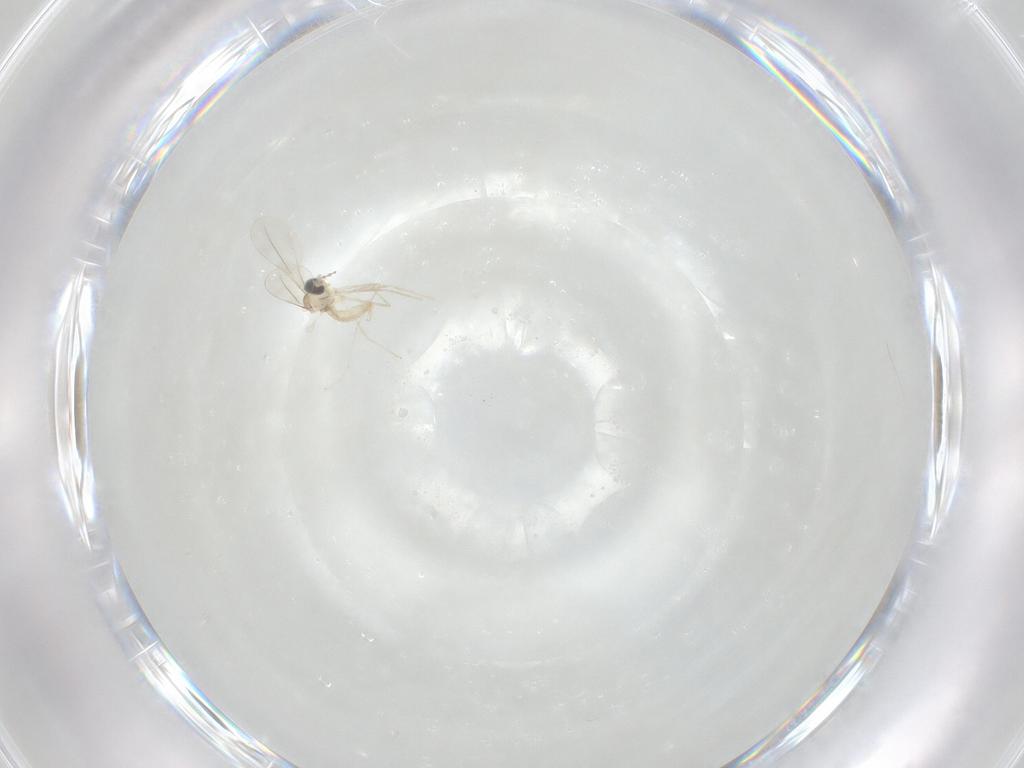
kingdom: Animalia
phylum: Arthropoda
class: Insecta
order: Diptera
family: Cecidomyiidae
